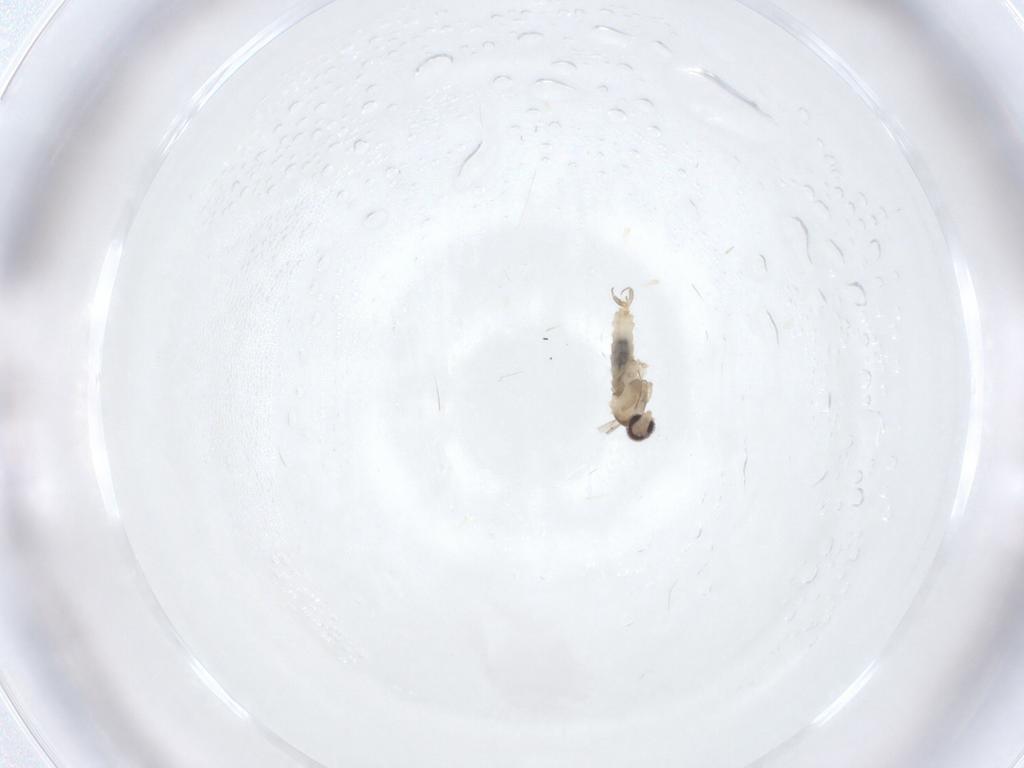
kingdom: Animalia
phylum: Arthropoda
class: Insecta
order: Diptera
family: Cecidomyiidae
